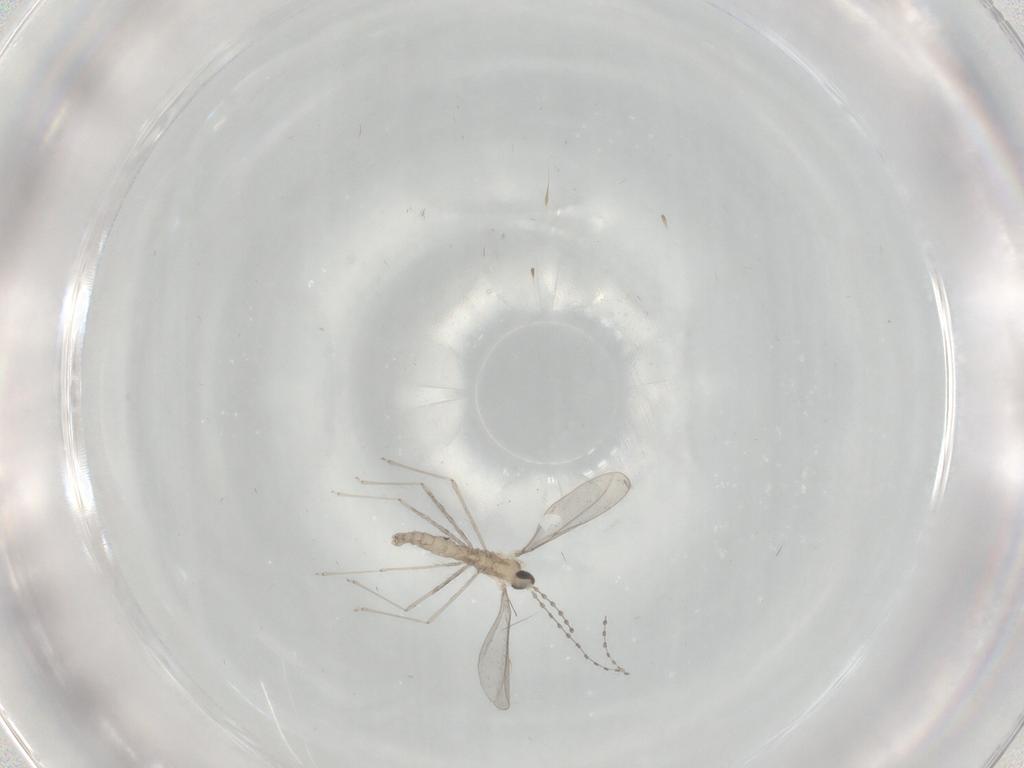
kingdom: Animalia
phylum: Arthropoda
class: Insecta
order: Diptera
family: Cecidomyiidae
